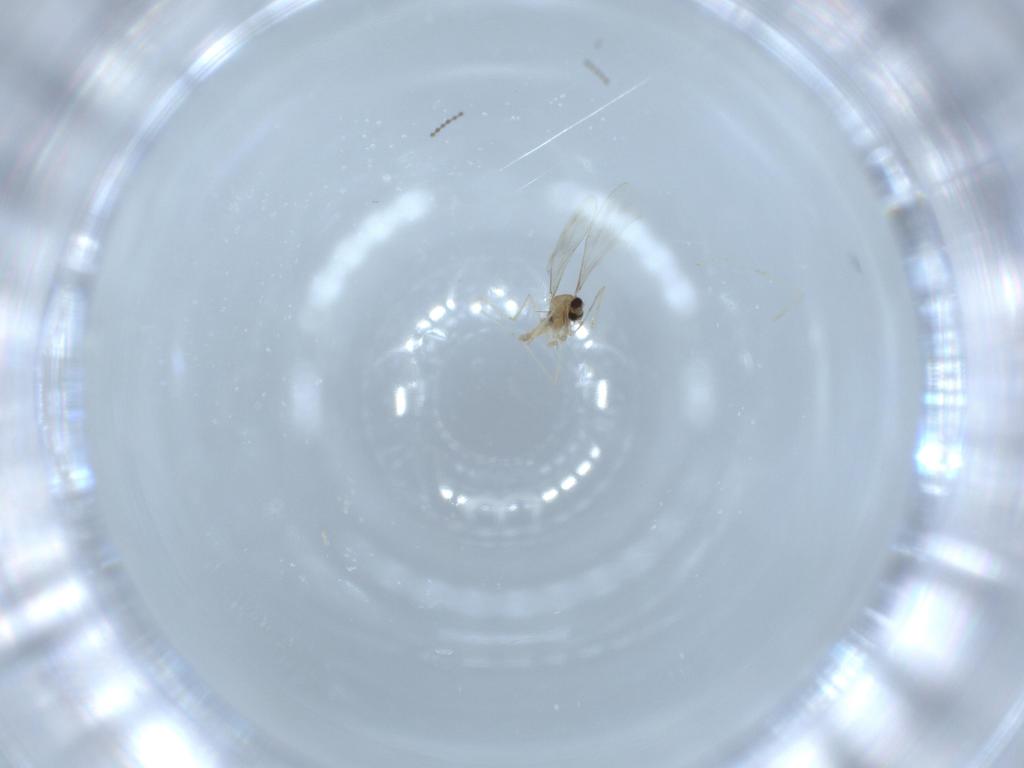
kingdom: Animalia
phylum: Arthropoda
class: Insecta
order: Diptera
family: Cecidomyiidae
